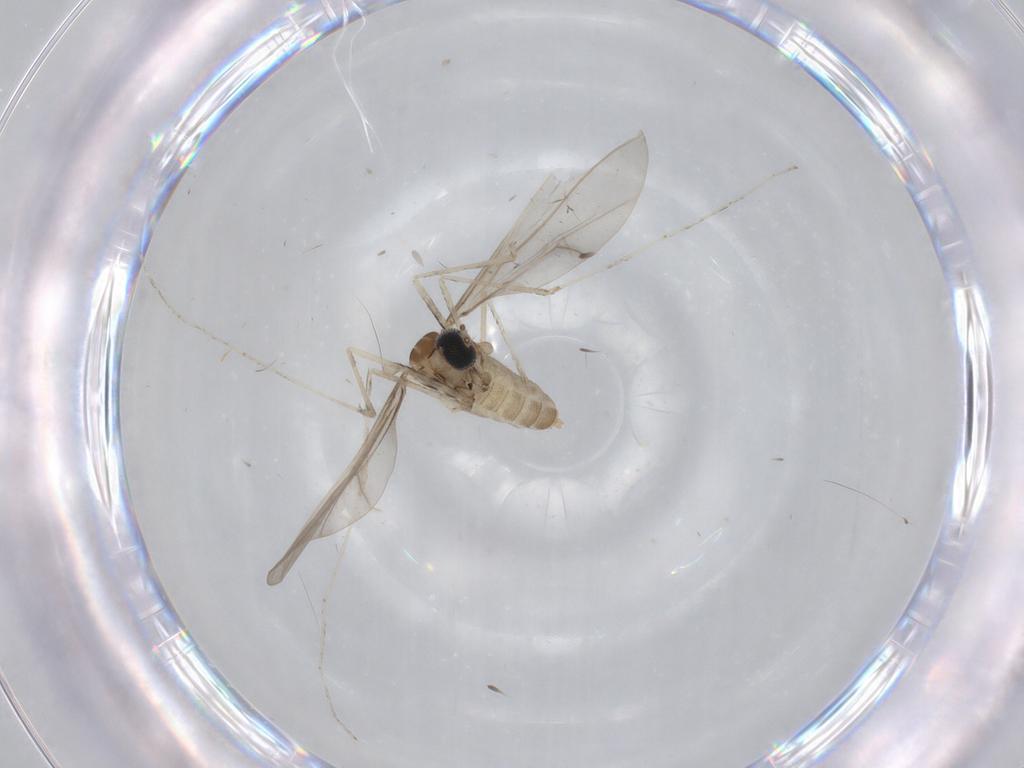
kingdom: Animalia
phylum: Arthropoda
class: Insecta
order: Diptera
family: Cecidomyiidae
